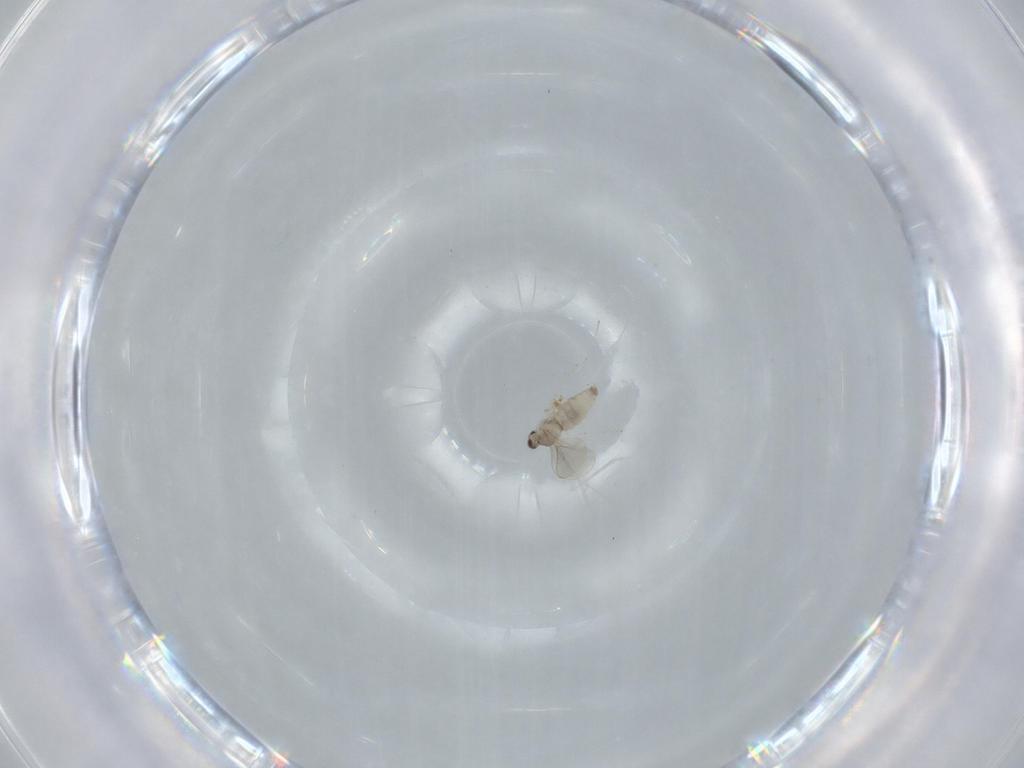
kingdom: Animalia
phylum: Arthropoda
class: Insecta
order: Diptera
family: Cecidomyiidae
